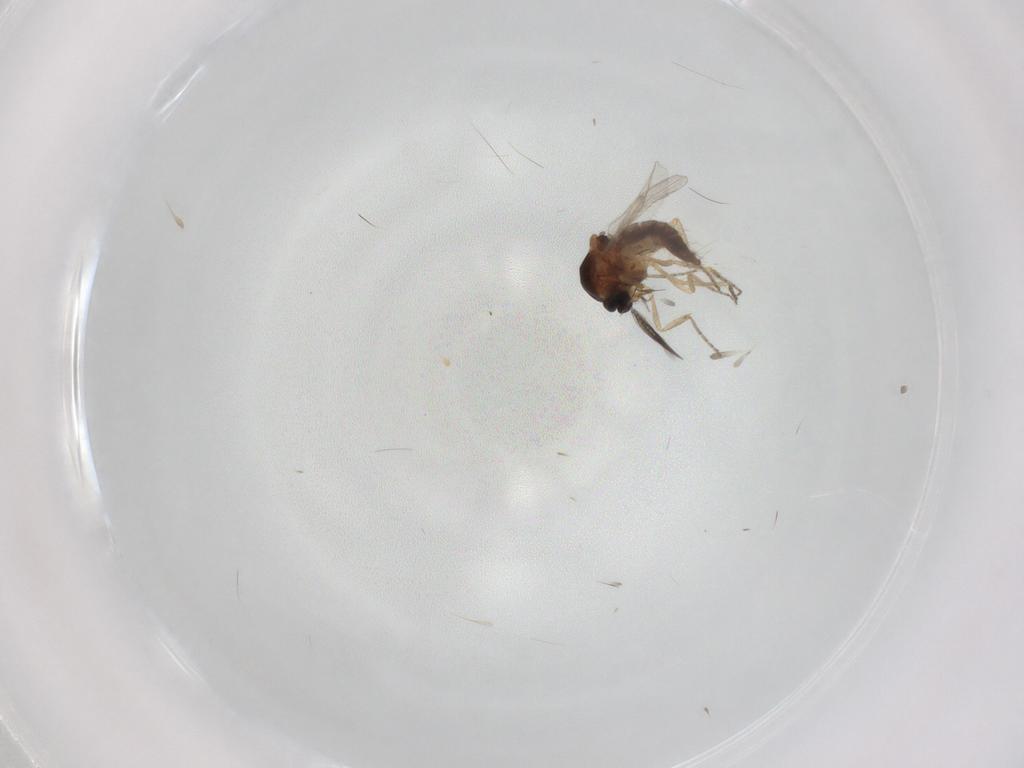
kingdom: Animalia
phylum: Arthropoda
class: Insecta
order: Diptera
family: Ceratopogonidae
